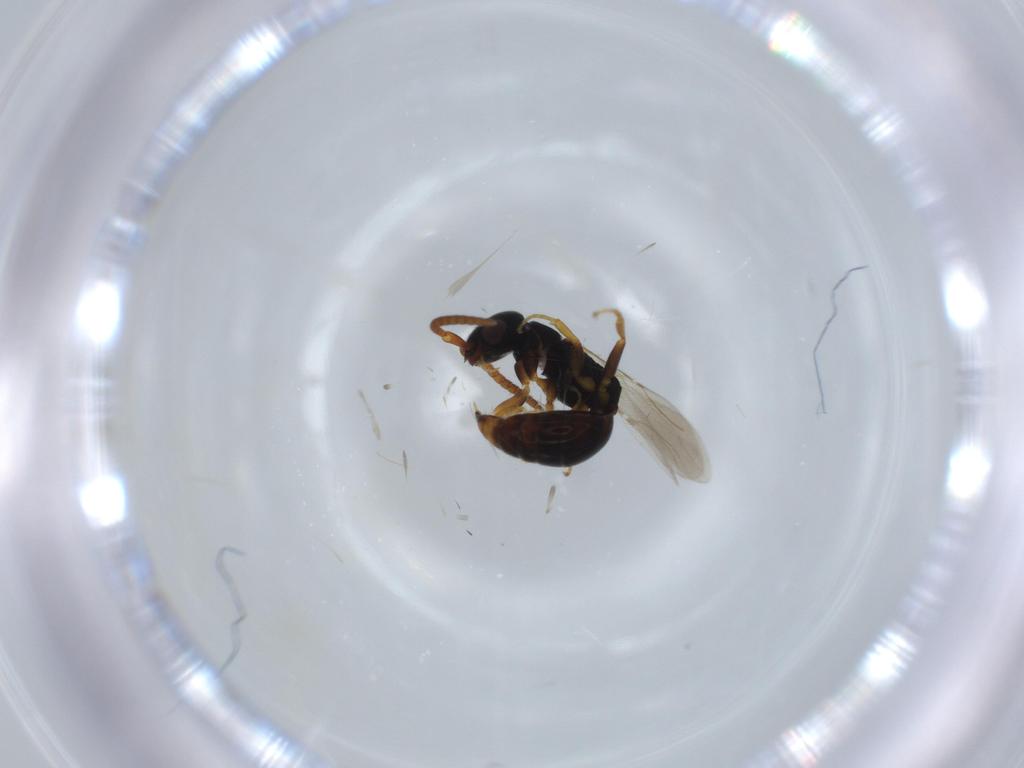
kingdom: Animalia
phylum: Arthropoda
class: Insecta
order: Hymenoptera
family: Bethylidae
